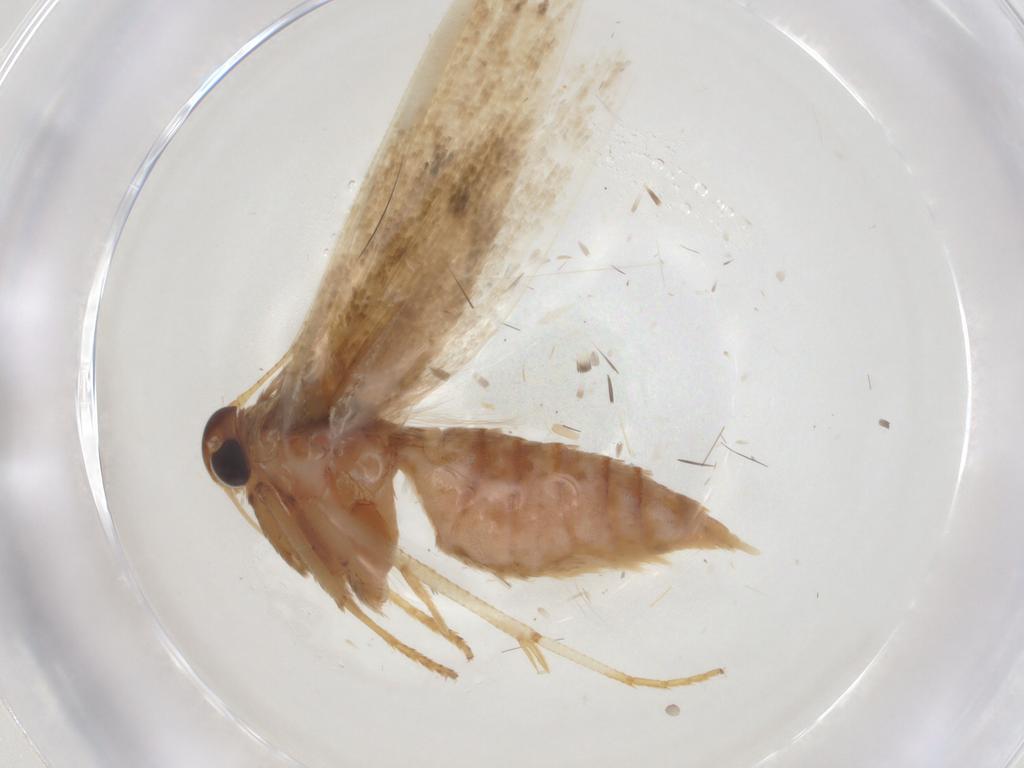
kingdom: Animalia
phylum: Arthropoda
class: Insecta
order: Lepidoptera
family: Blastobasidae
